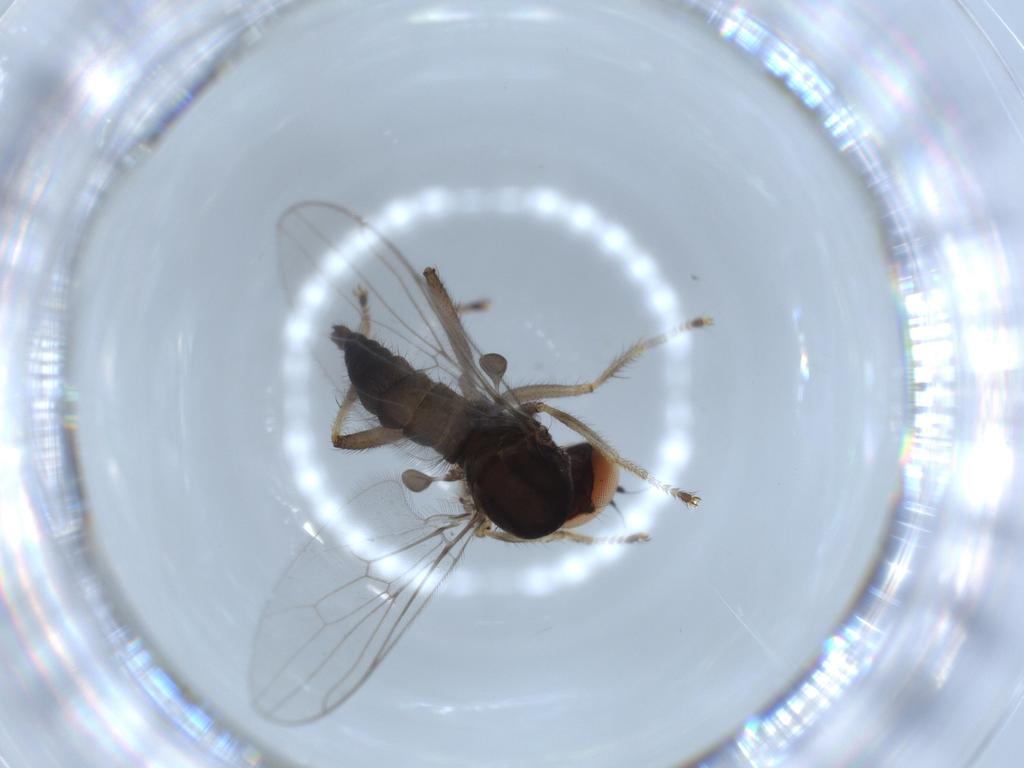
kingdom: Animalia
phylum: Arthropoda
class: Insecta
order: Diptera
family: Hybotidae
